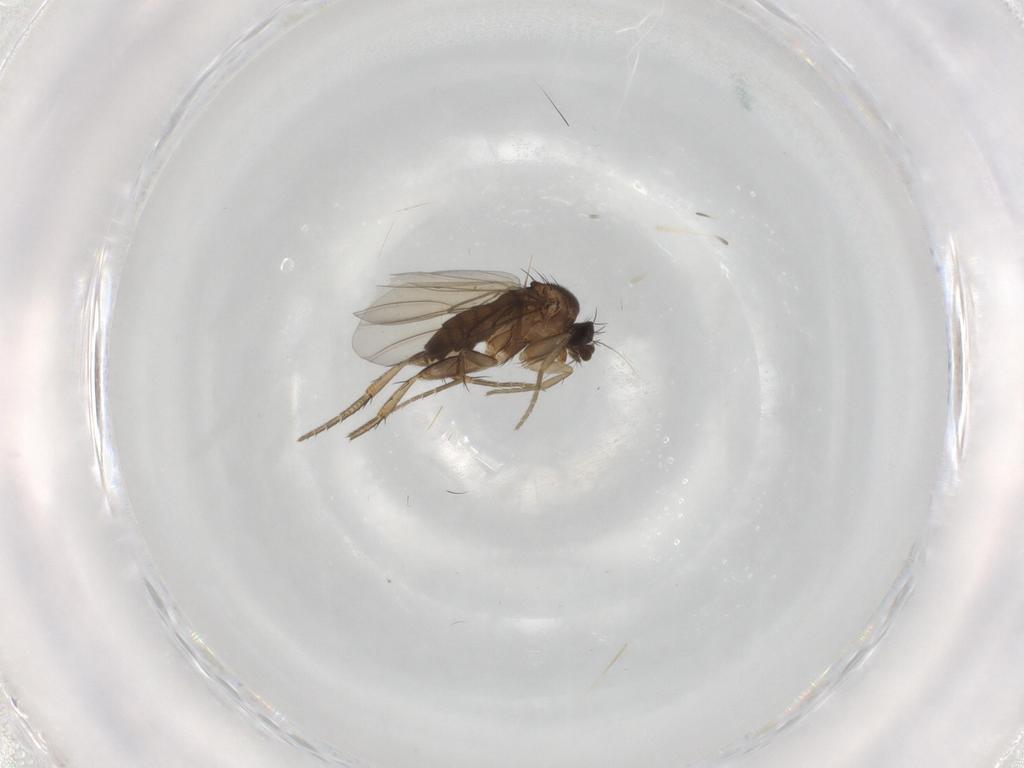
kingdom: Animalia
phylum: Arthropoda
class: Insecta
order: Diptera
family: Phoridae
